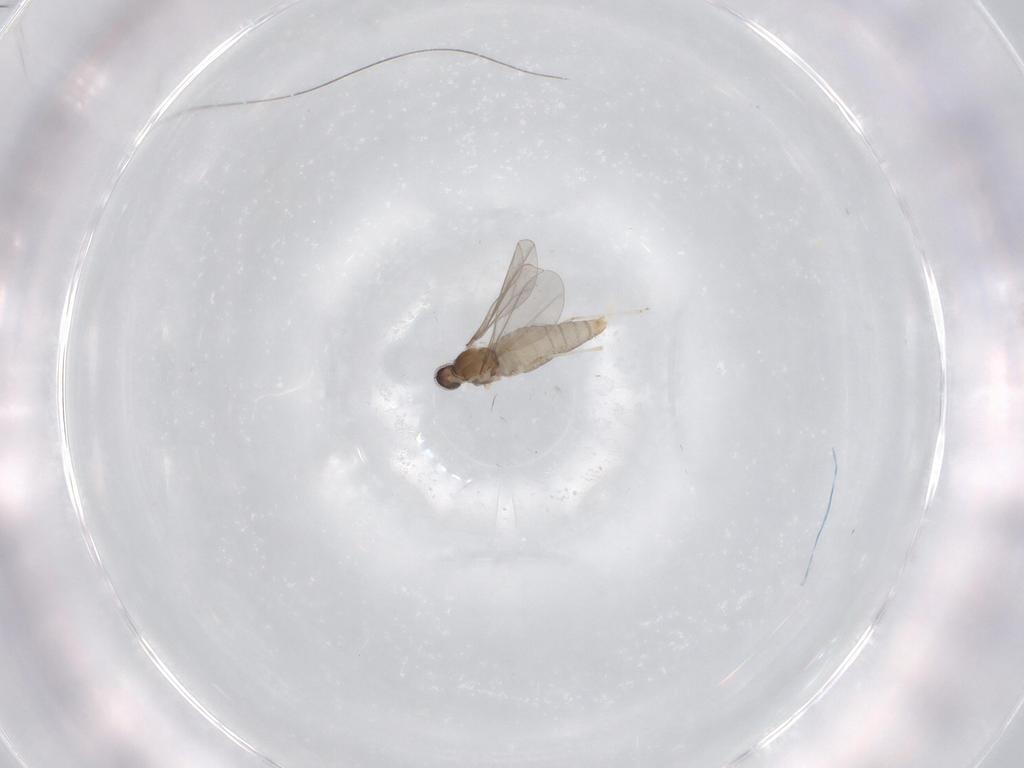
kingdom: Animalia
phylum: Arthropoda
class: Insecta
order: Diptera
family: Cecidomyiidae
